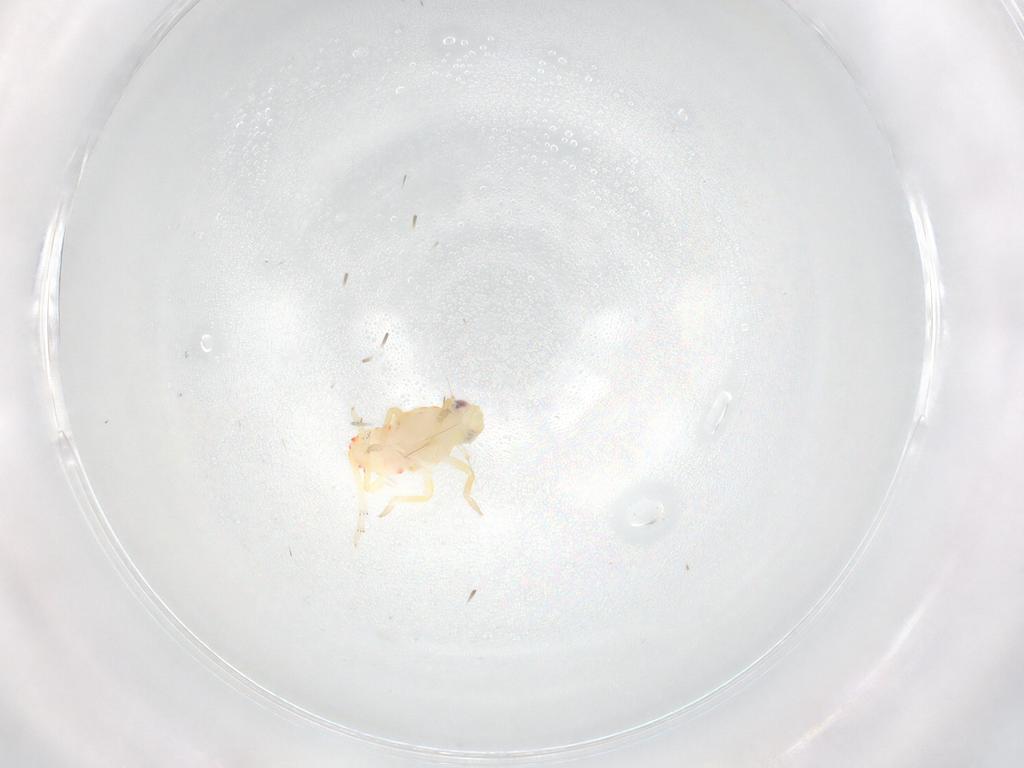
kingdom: Animalia
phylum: Arthropoda
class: Insecta
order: Hemiptera
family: Tropiduchidae
